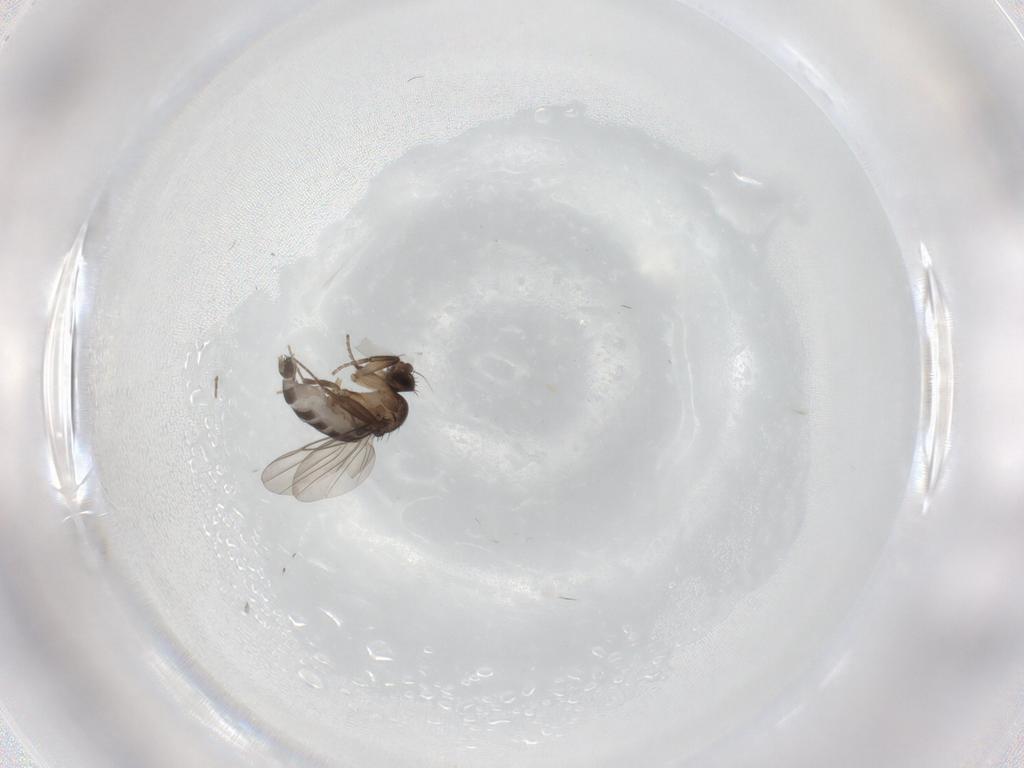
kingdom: Animalia
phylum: Arthropoda
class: Insecta
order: Diptera
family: Phoridae
